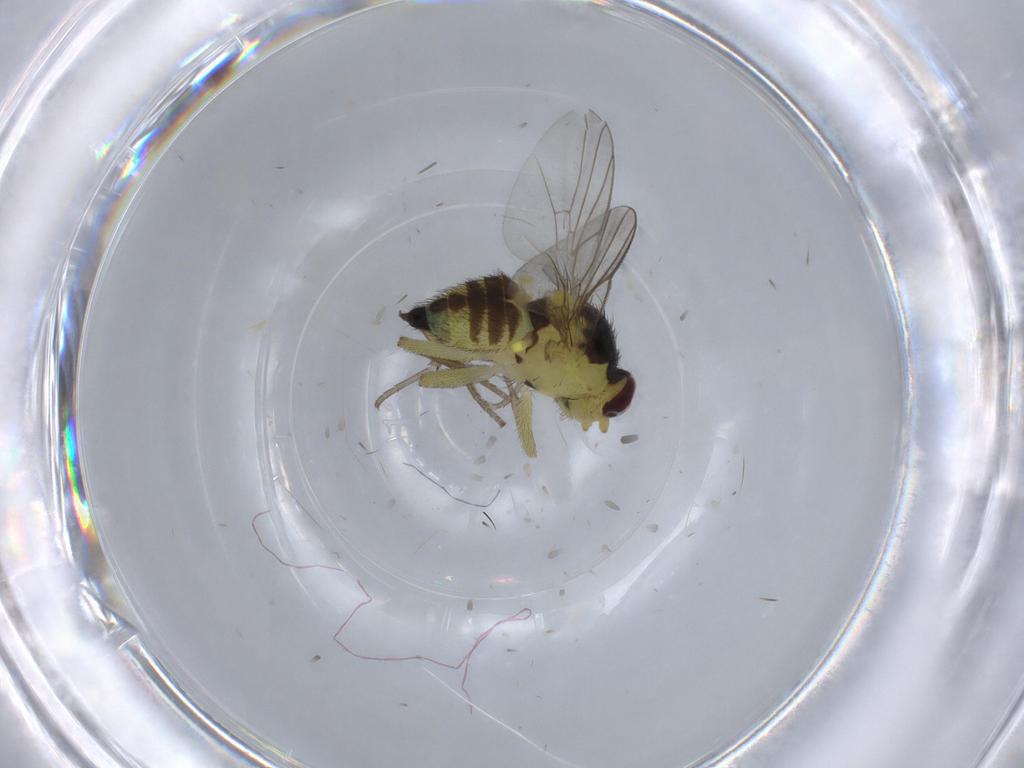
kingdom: Animalia
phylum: Arthropoda
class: Insecta
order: Diptera
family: Agromyzidae
